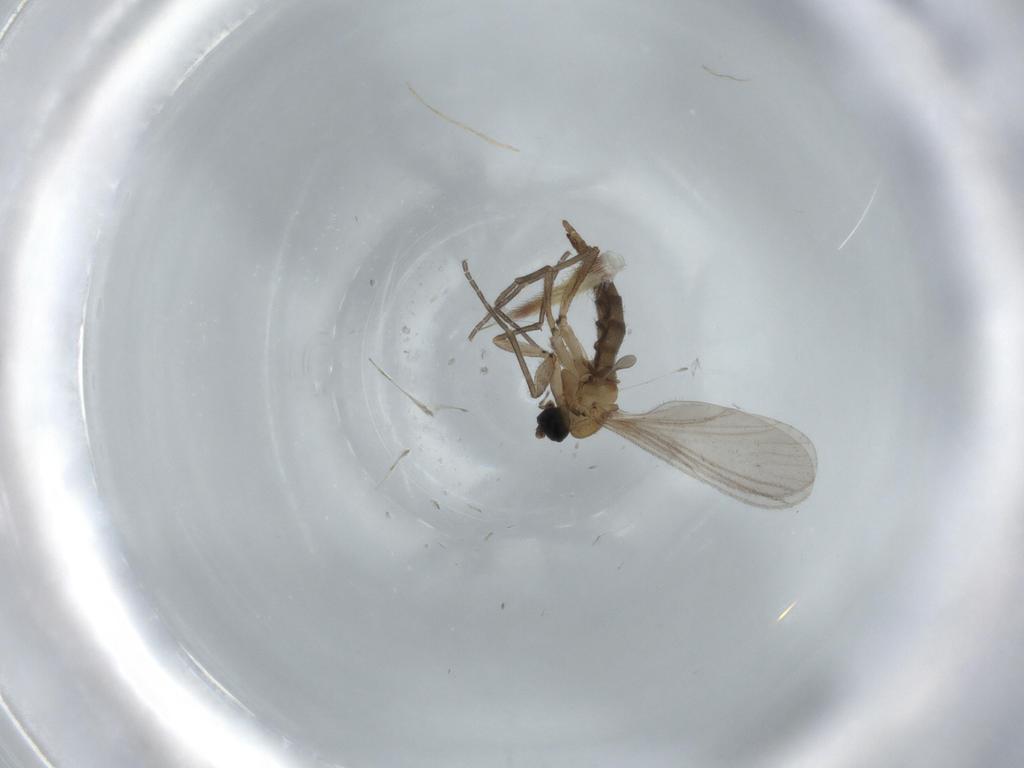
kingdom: Animalia
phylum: Arthropoda
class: Insecta
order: Diptera
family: Sciaridae
